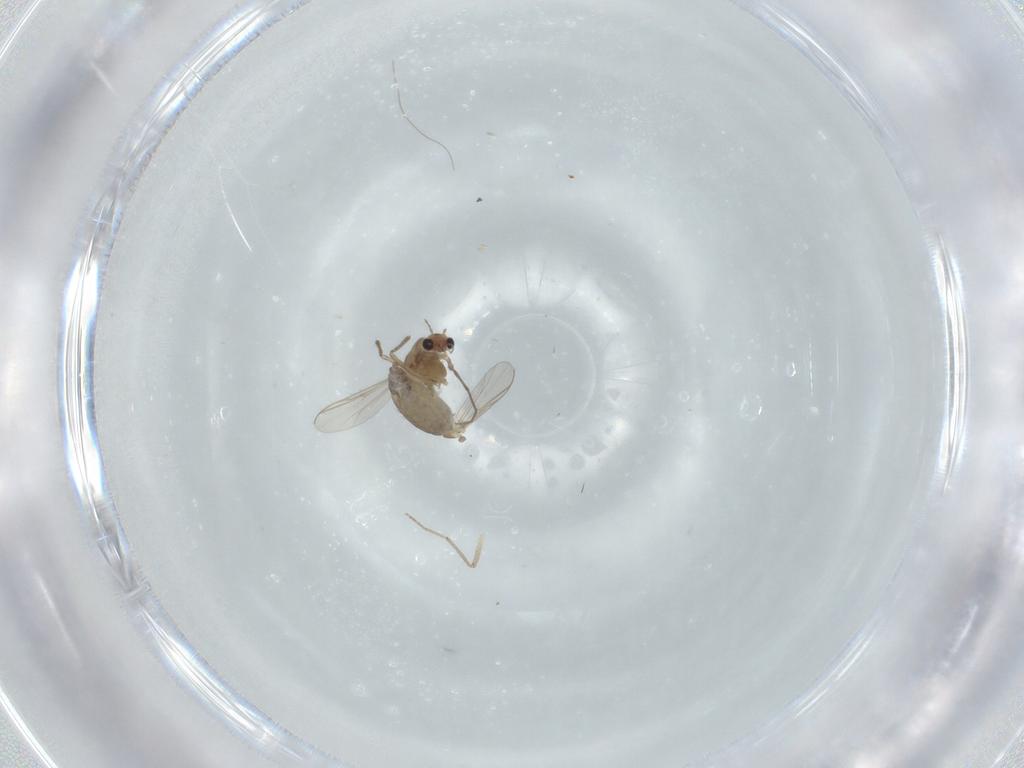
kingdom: Animalia
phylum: Arthropoda
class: Insecta
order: Diptera
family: Chironomidae
